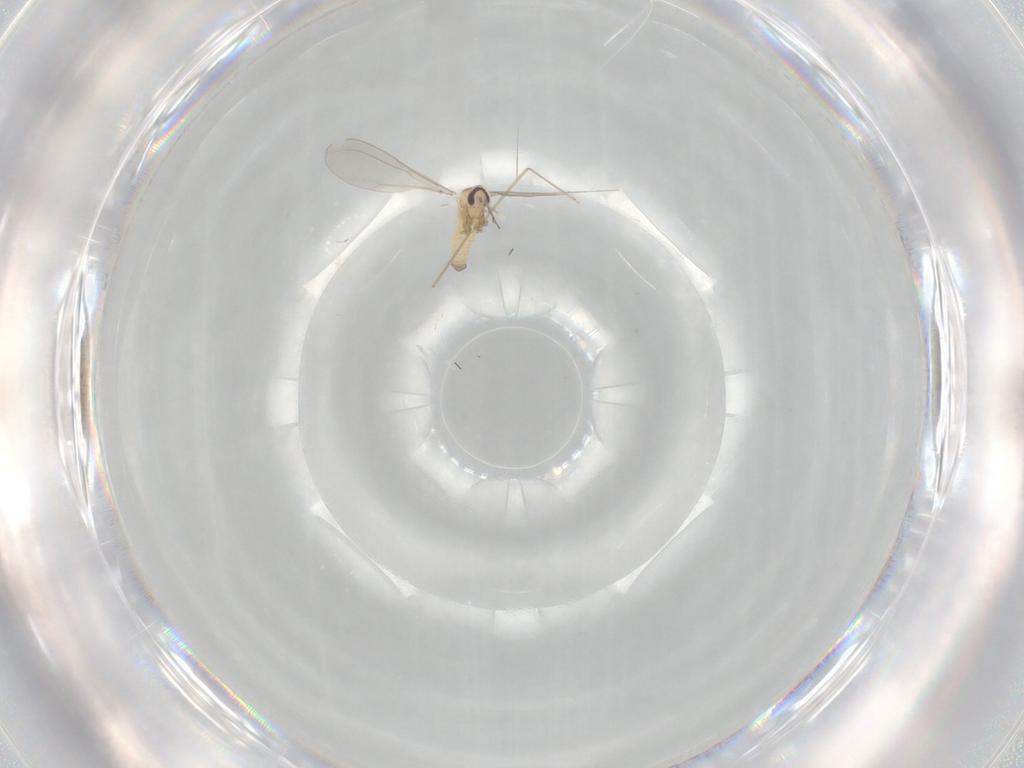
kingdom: Animalia
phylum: Arthropoda
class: Insecta
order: Diptera
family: Cecidomyiidae
